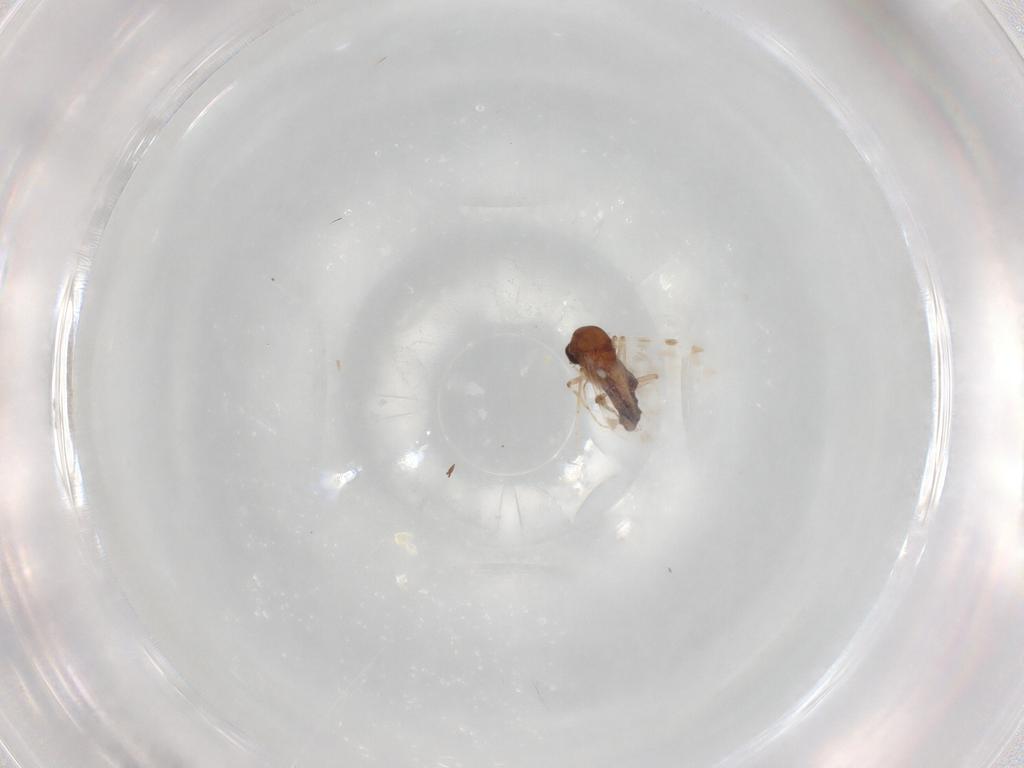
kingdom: Animalia
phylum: Arthropoda
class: Insecta
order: Diptera
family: Calliphoridae
